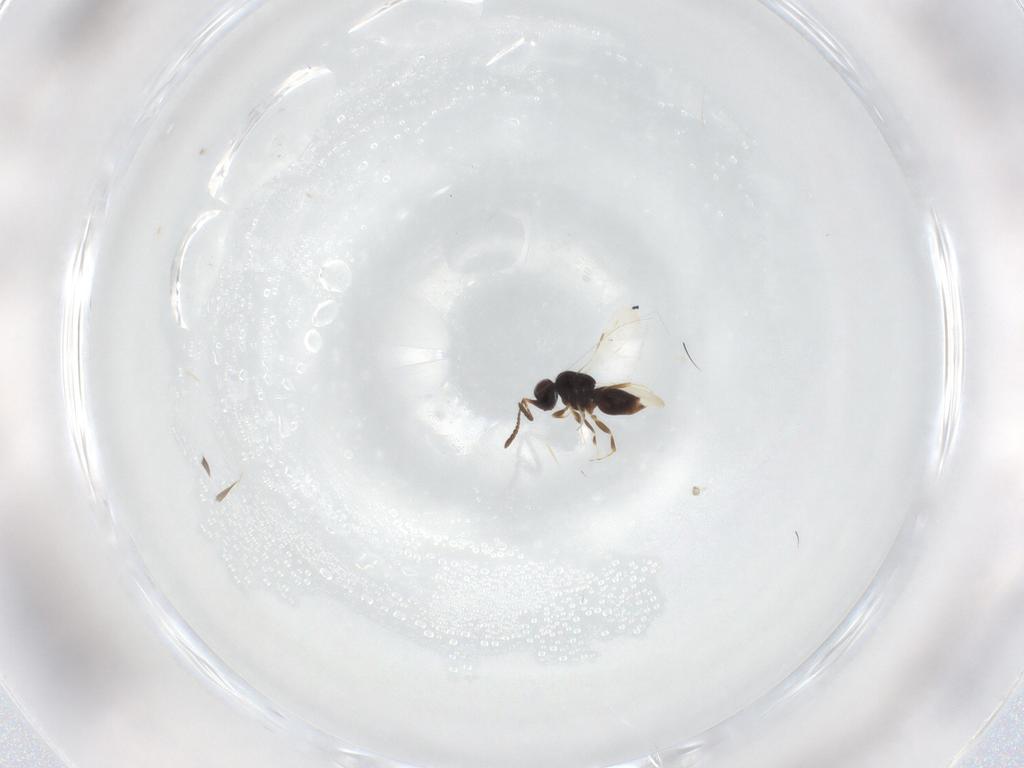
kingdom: Animalia
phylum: Arthropoda
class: Insecta
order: Hymenoptera
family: Ceraphronidae
